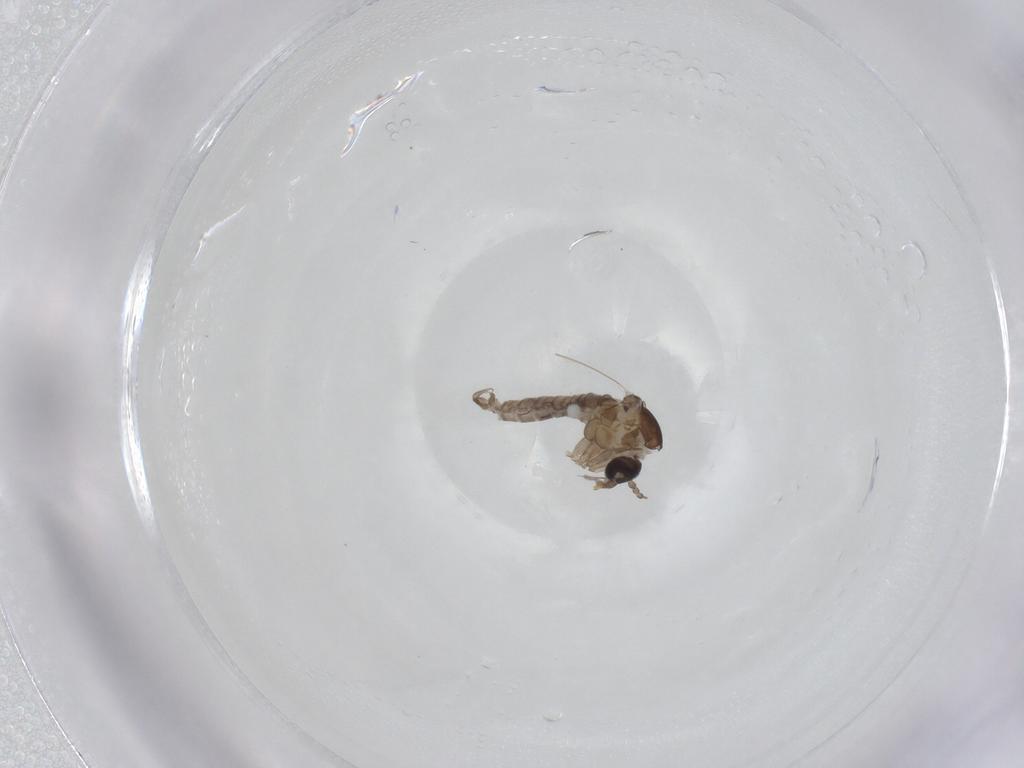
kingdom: Animalia
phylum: Arthropoda
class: Insecta
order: Diptera
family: Psychodidae
